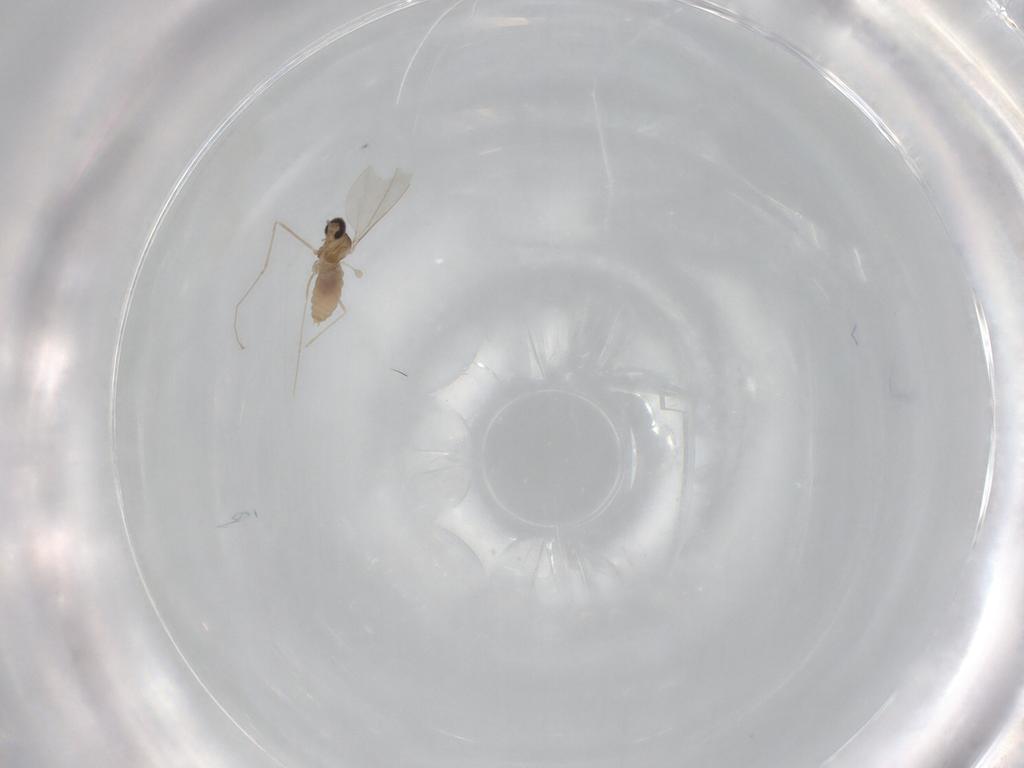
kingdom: Animalia
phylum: Arthropoda
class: Insecta
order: Diptera
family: Cecidomyiidae
